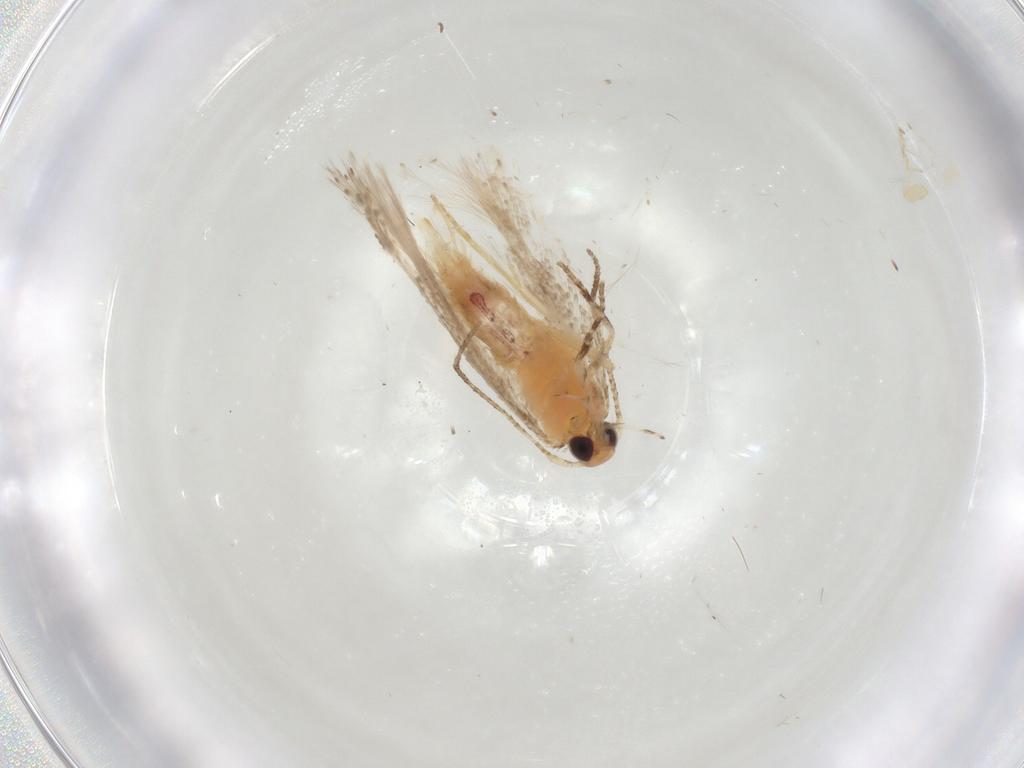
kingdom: Animalia
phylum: Arthropoda
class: Insecta
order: Lepidoptera
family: Gelechiidae
